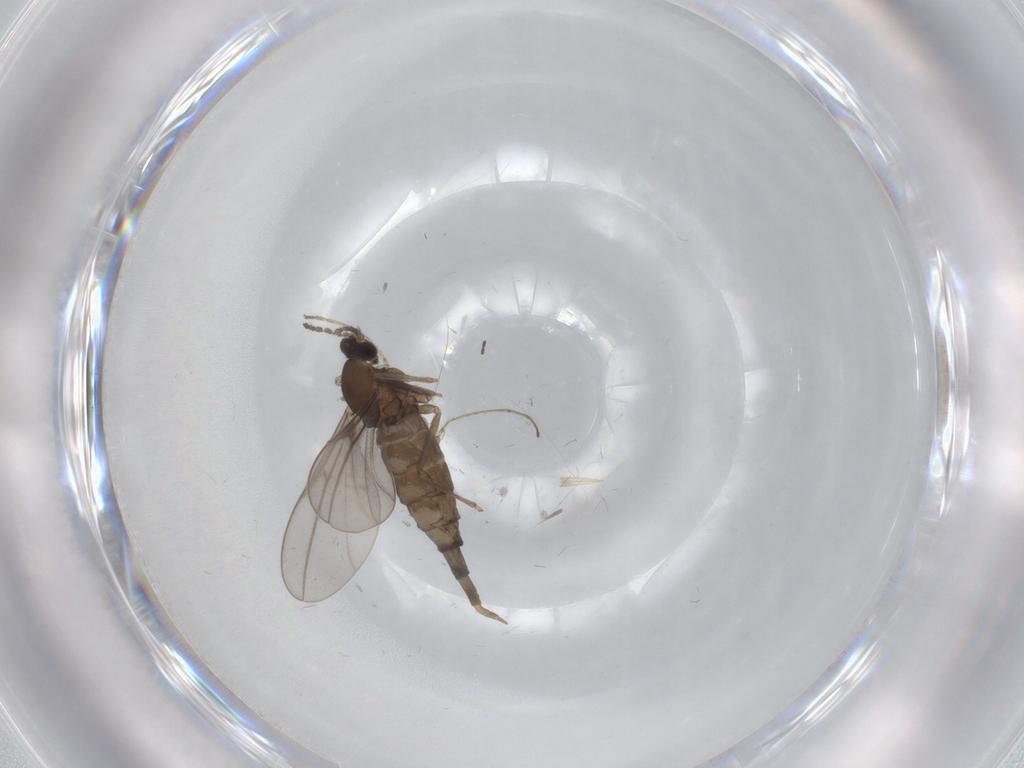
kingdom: Animalia
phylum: Arthropoda
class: Insecta
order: Diptera
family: Cecidomyiidae
